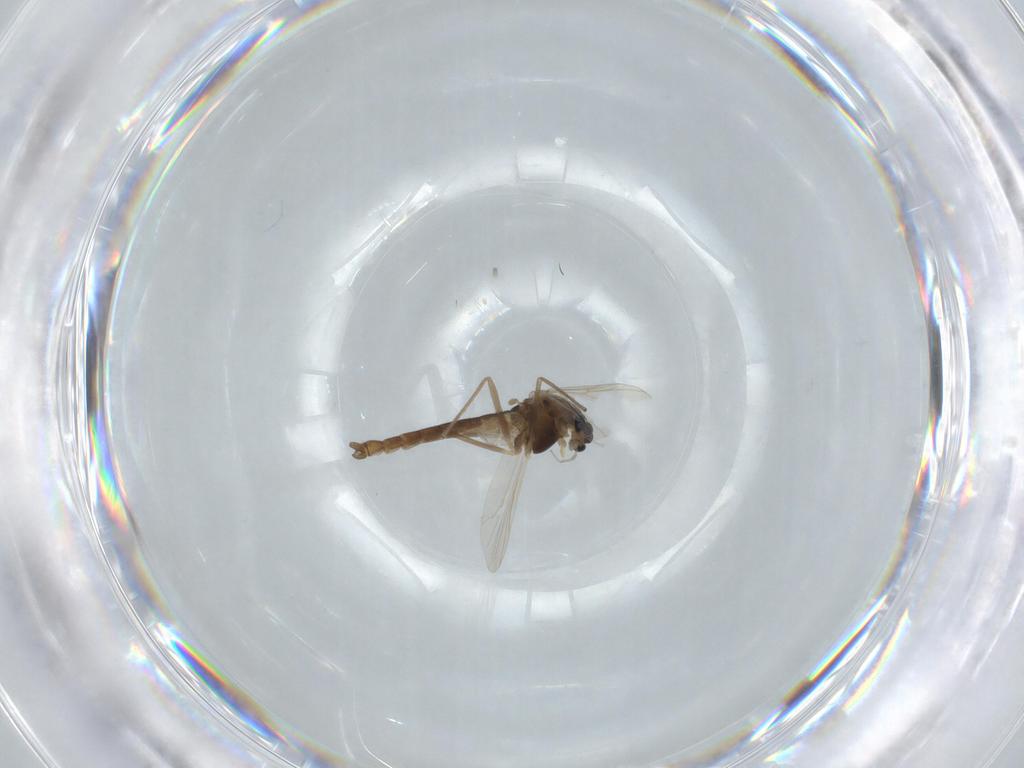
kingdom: Animalia
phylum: Arthropoda
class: Insecta
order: Diptera
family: Chironomidae
